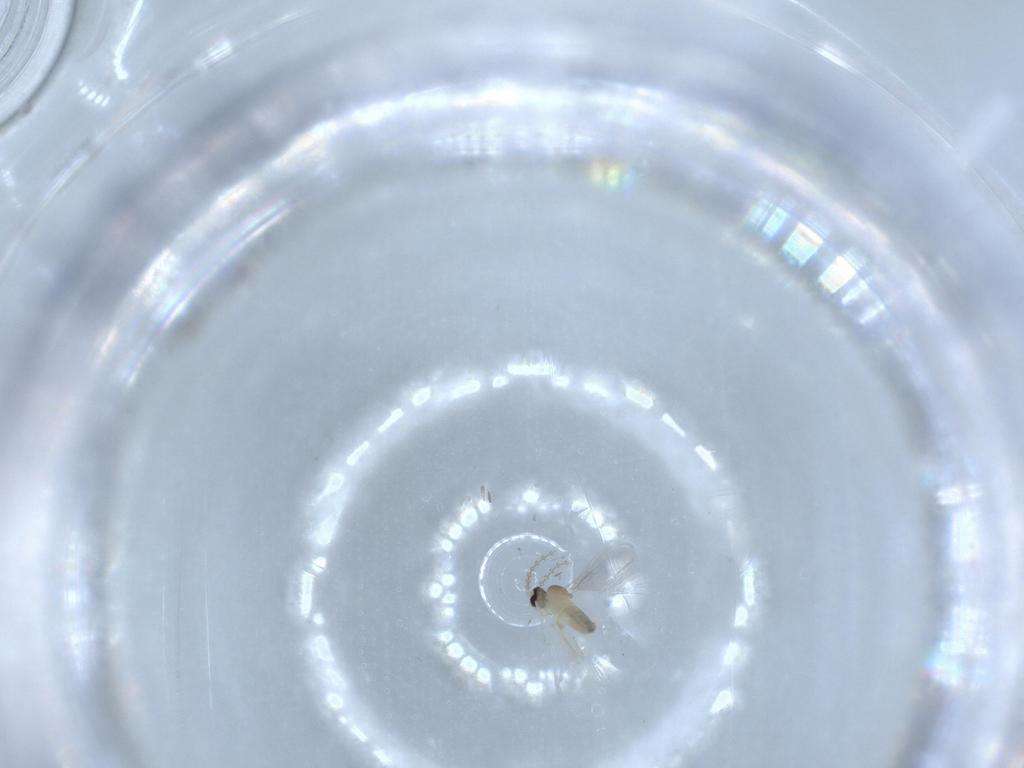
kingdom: Animalia
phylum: Arthropoda
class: Insecta
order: Diptera
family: Cecidomyiidae
